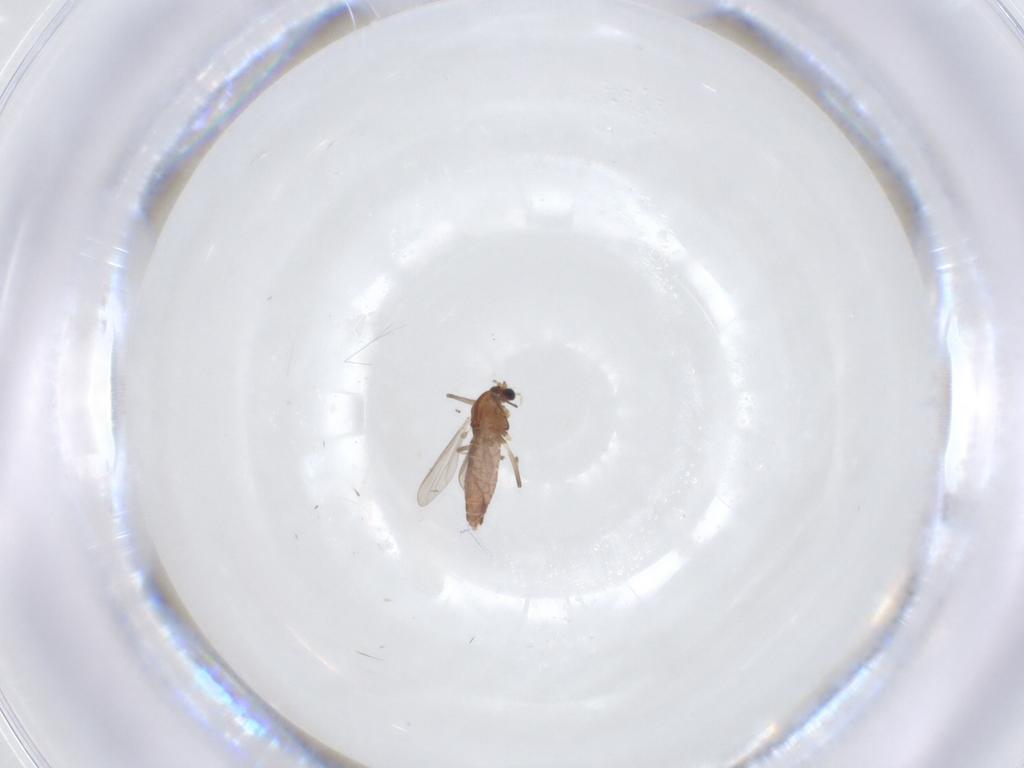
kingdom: Animalia
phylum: Arthropoda
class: Insecta
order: Diptera
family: Chironomidae
